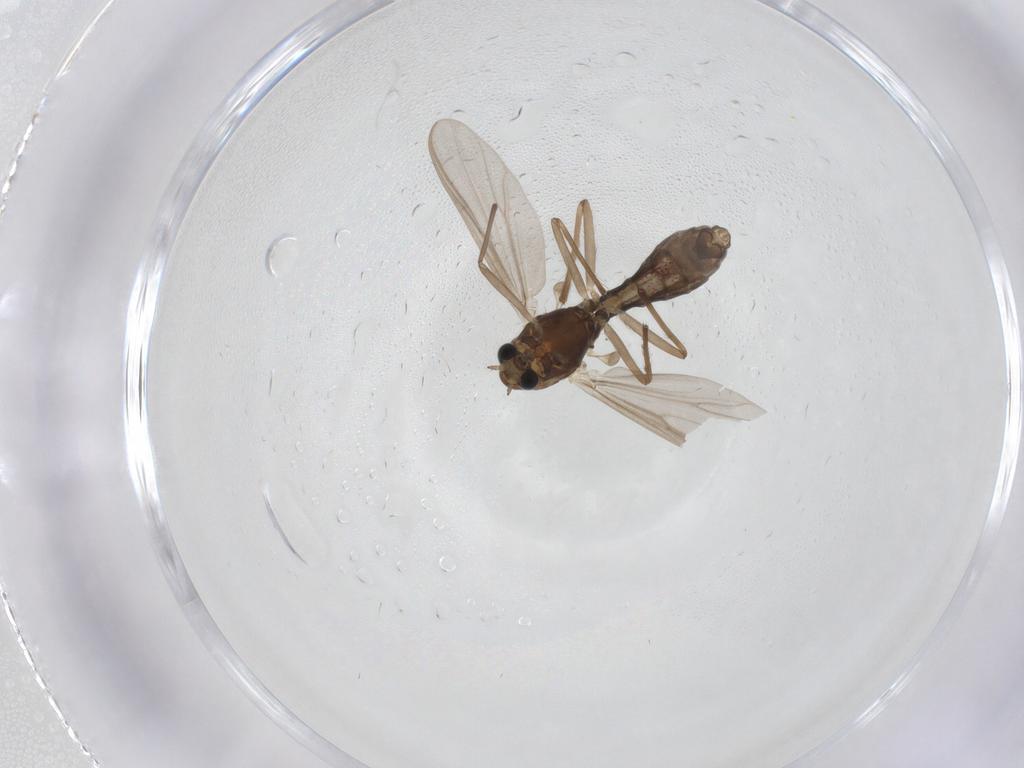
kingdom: Animalia
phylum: Arthropoda
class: Insecta
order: Diptera
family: Chironomidae
